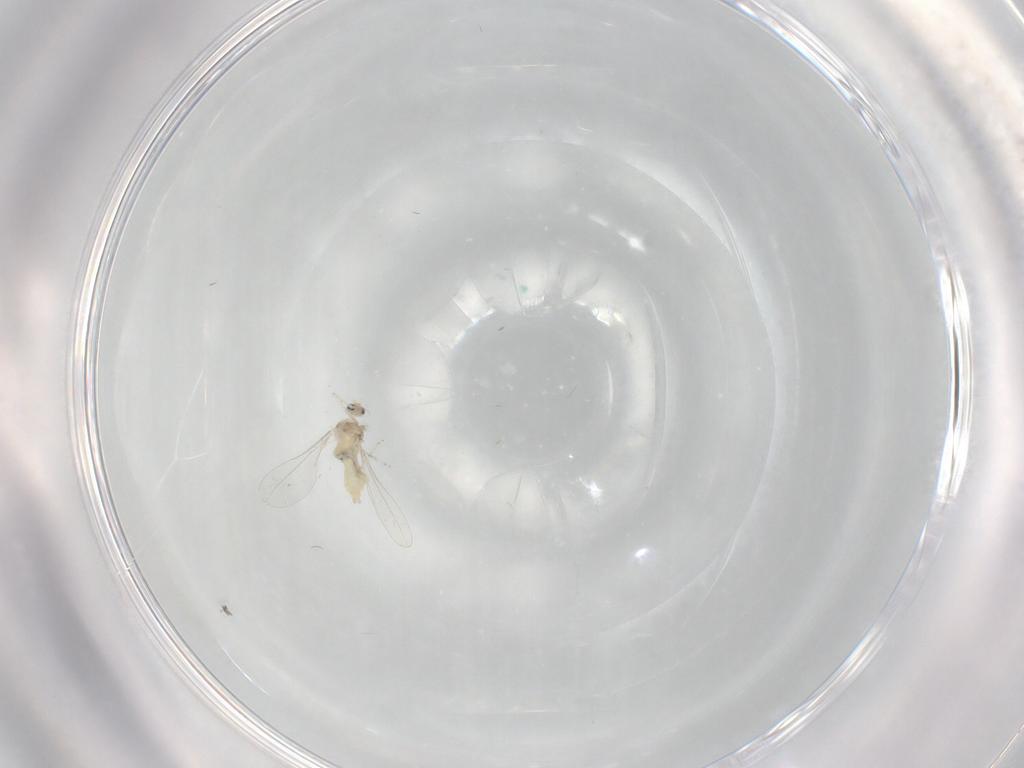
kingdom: Animalia
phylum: Arthropoda
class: Insecta
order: Diptera
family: Cecidomyiidae
